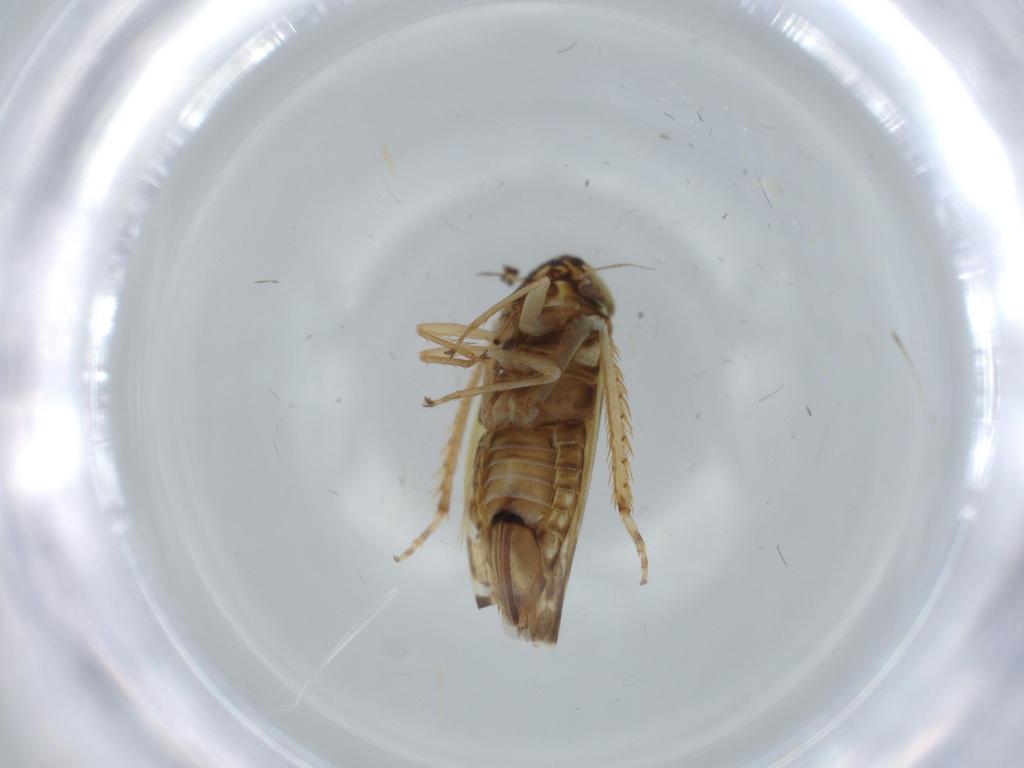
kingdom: Animalia
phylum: Arthropoda
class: Insecta
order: Hemiptera
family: Cicadellidae
